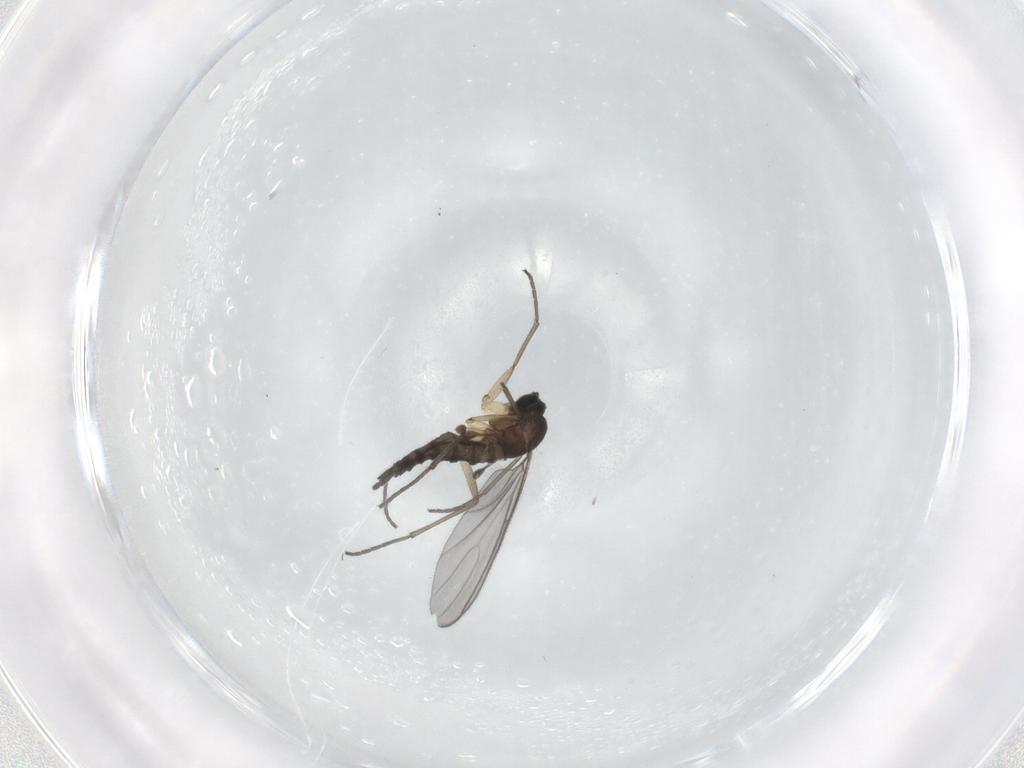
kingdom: Animalia
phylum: Arthropoda
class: Insecta
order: Diptera
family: Sciaridae
